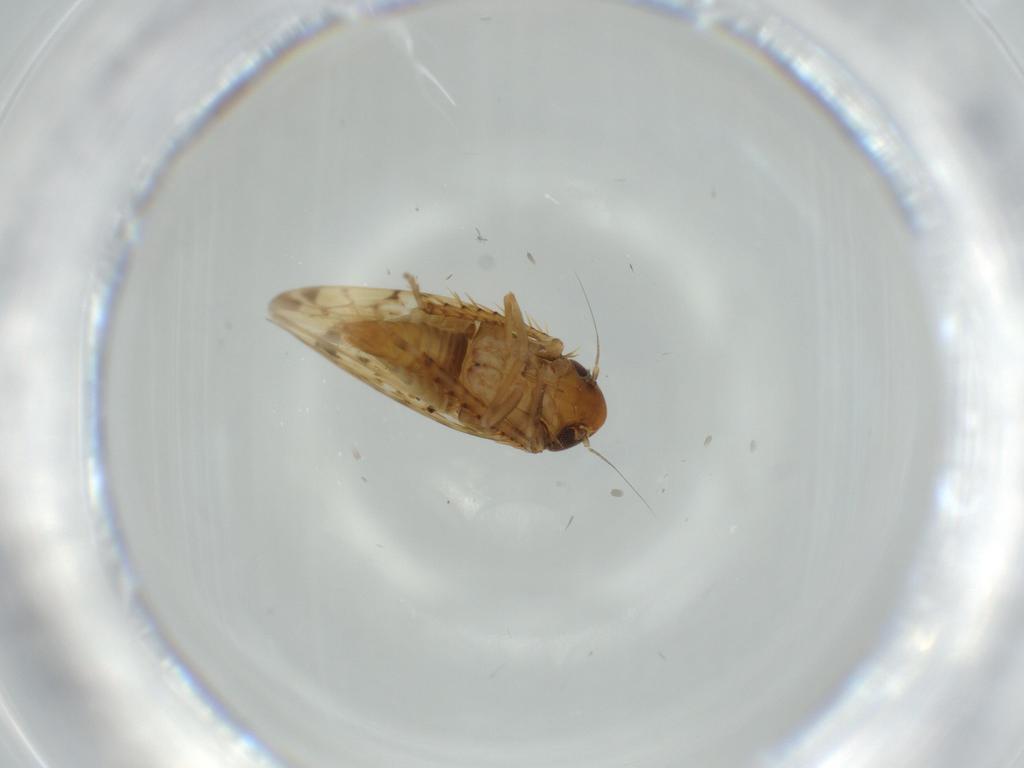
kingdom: Animalia
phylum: Arthropoda
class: Insecta
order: Hemiptera
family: Cicadellidae
